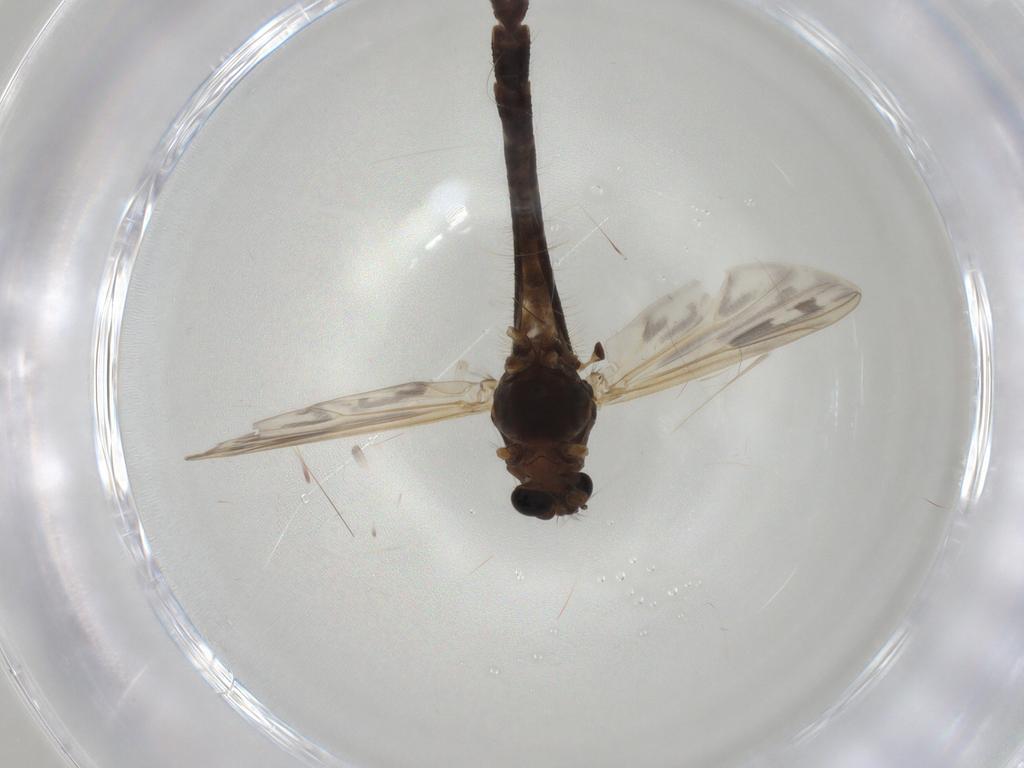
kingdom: Animalia
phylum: Arthropoda
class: Insecta
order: Diptera
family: Chironomidae
